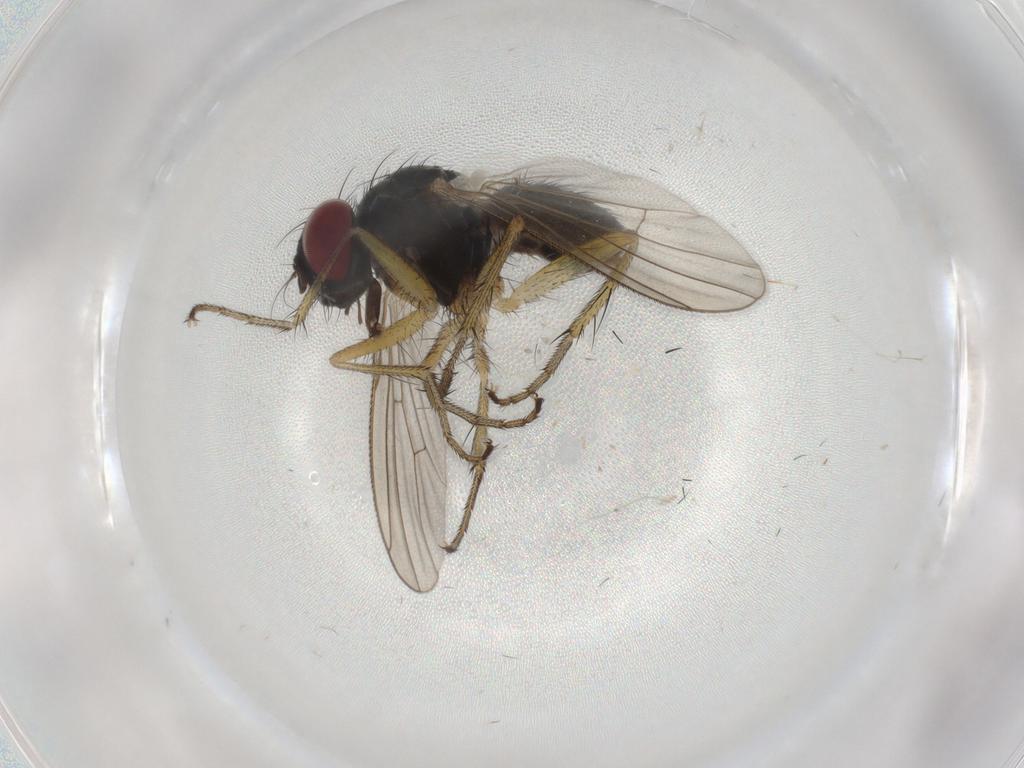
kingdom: Animalia
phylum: Arthropoda
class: Insecta
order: Diptera
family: Muscidae
